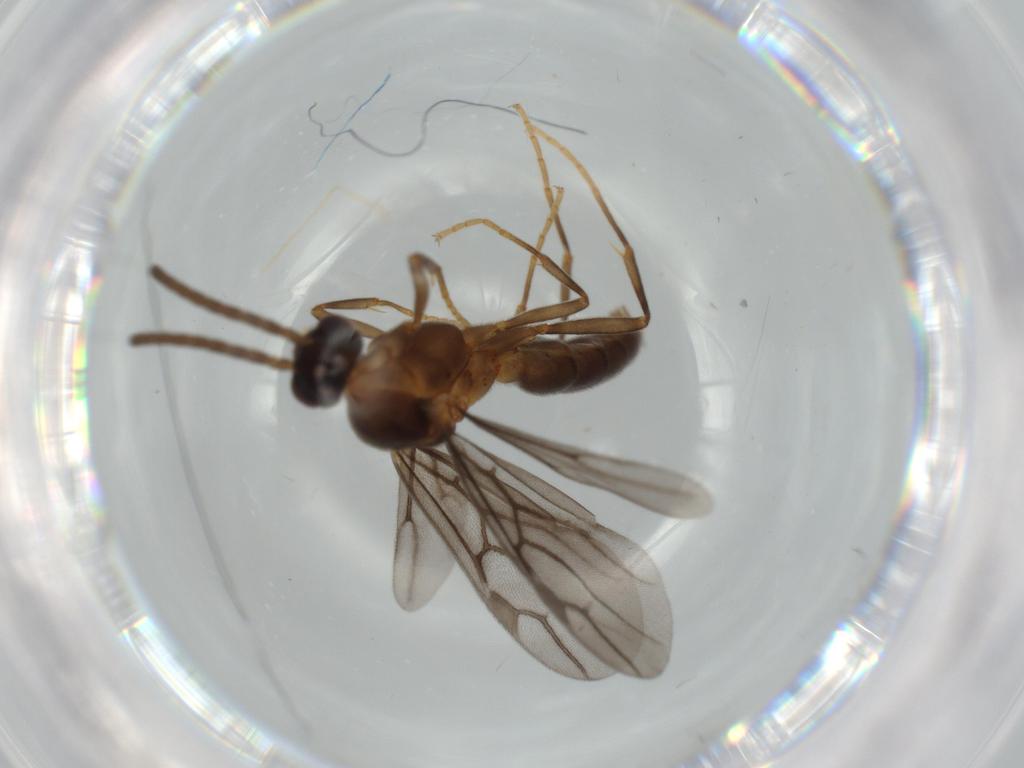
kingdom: Animalia
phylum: Arthropoda
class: Insecta
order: Hymenoptera
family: Formicidae
